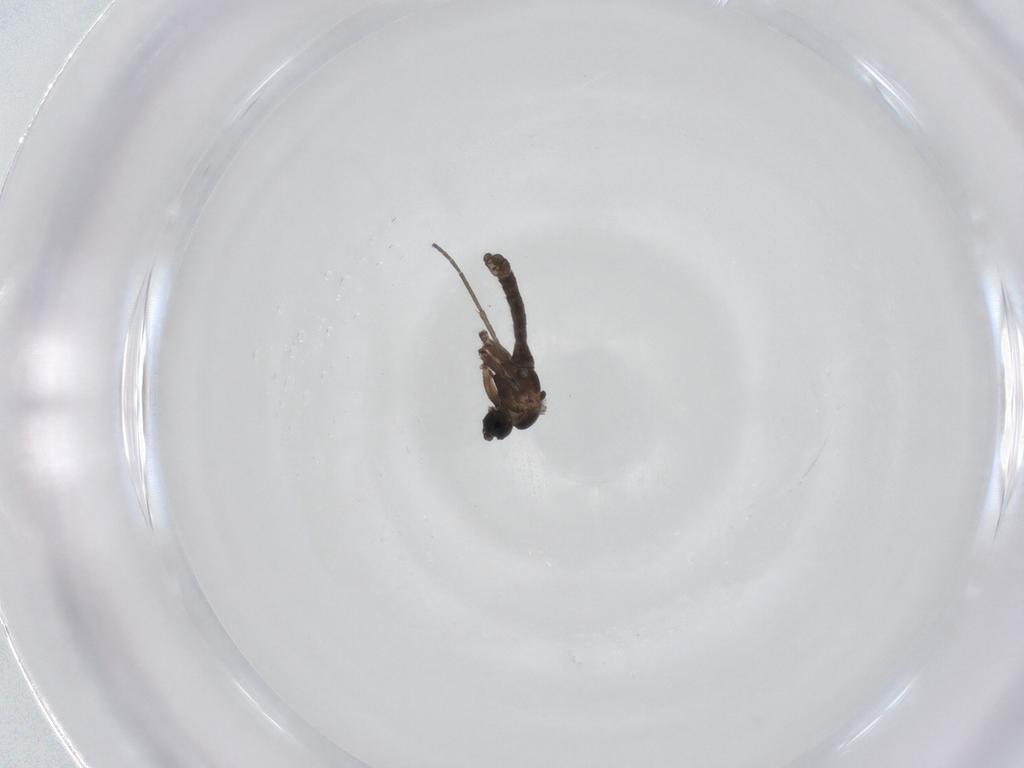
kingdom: Animalia
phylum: Arthropoda
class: Insecta
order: Diptera
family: Sciaridae
